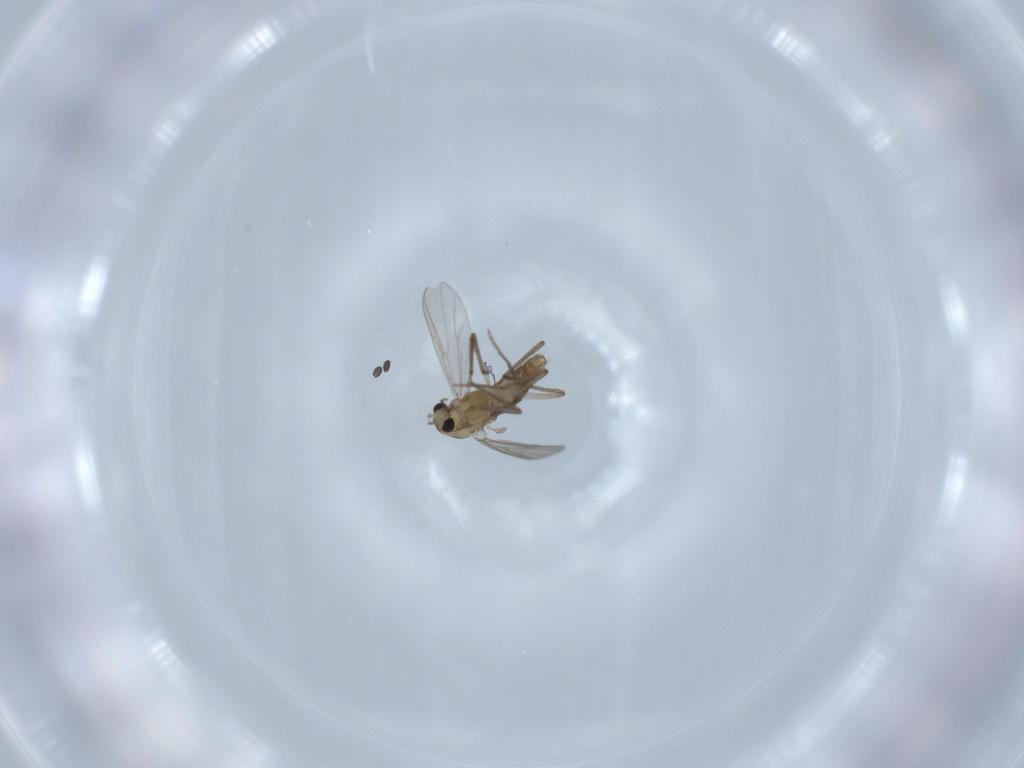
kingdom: Animalia
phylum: Arthropoda
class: Insecta
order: Diptera
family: Chironomidae
